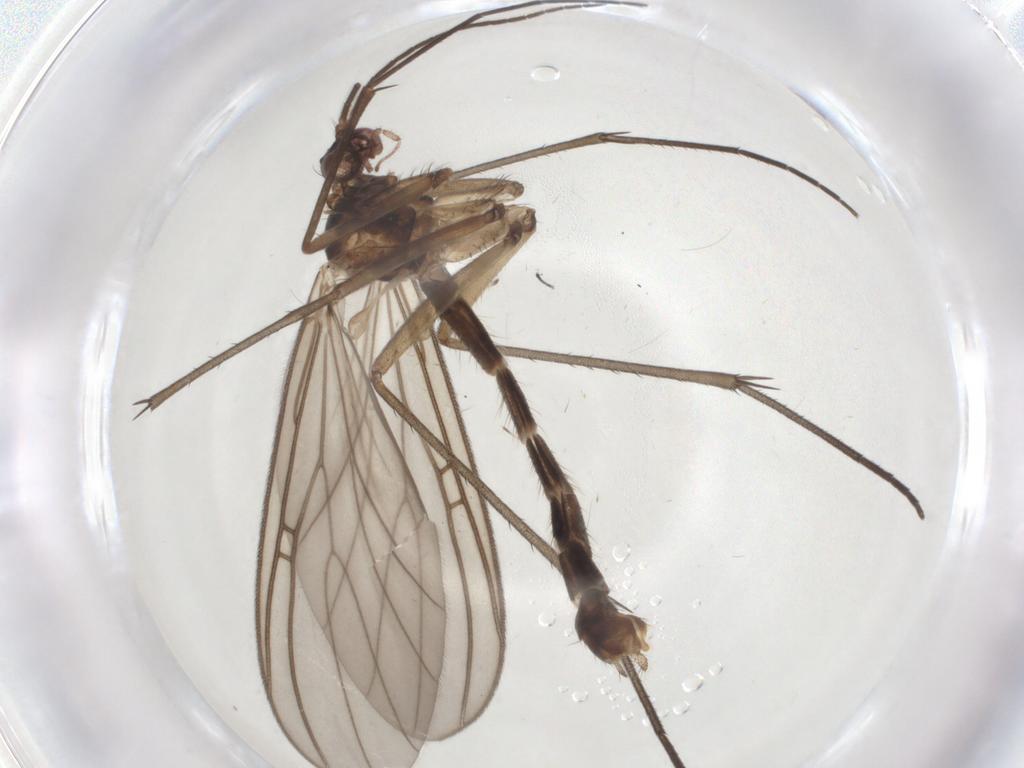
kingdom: Animalia
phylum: Arthropoda
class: Insecta
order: Diptera
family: Mycetophilidae
